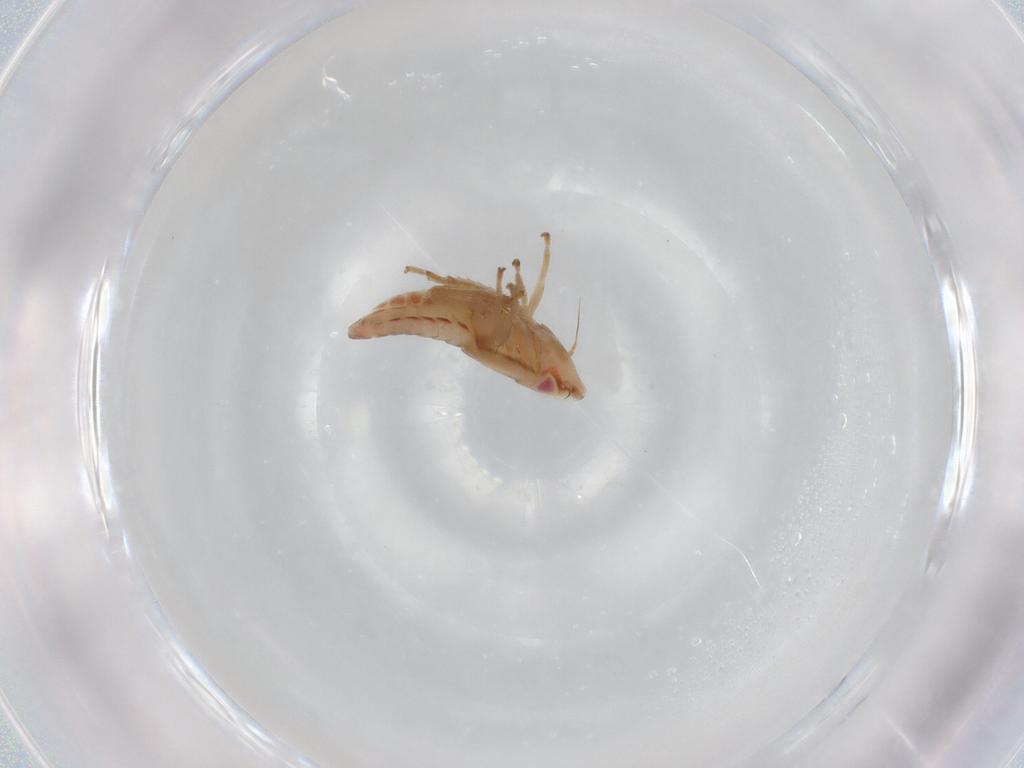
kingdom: Animalia
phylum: Arthropoda
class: Insecta
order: Hemiptera
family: Cicadellidae
